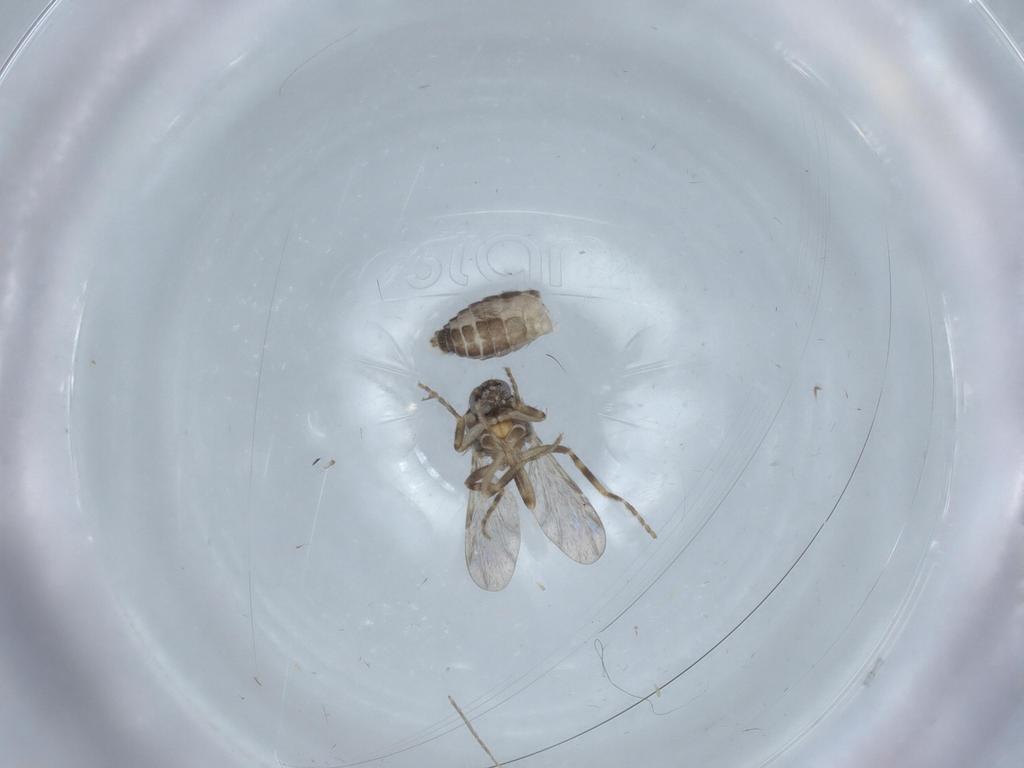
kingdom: Animalia
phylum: Arthropoda
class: Insecta
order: Diptera
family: Ceratopogonidae
